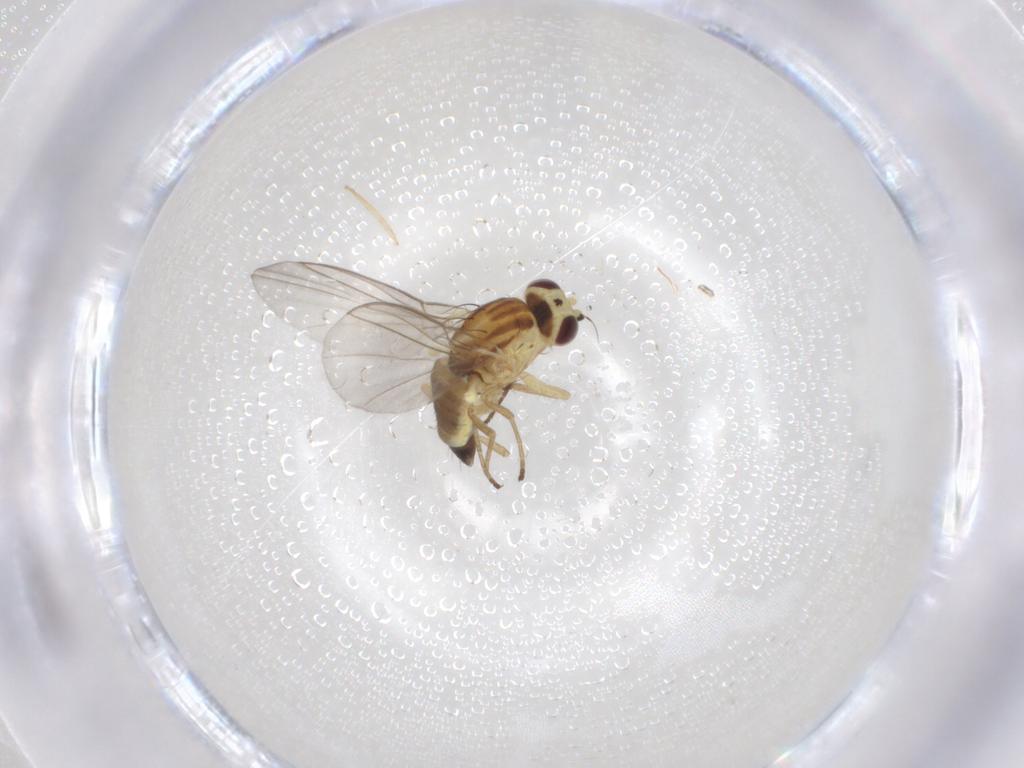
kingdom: Animalia
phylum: Arthropoda
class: Insecta
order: Diptera
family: Agromyzidae
